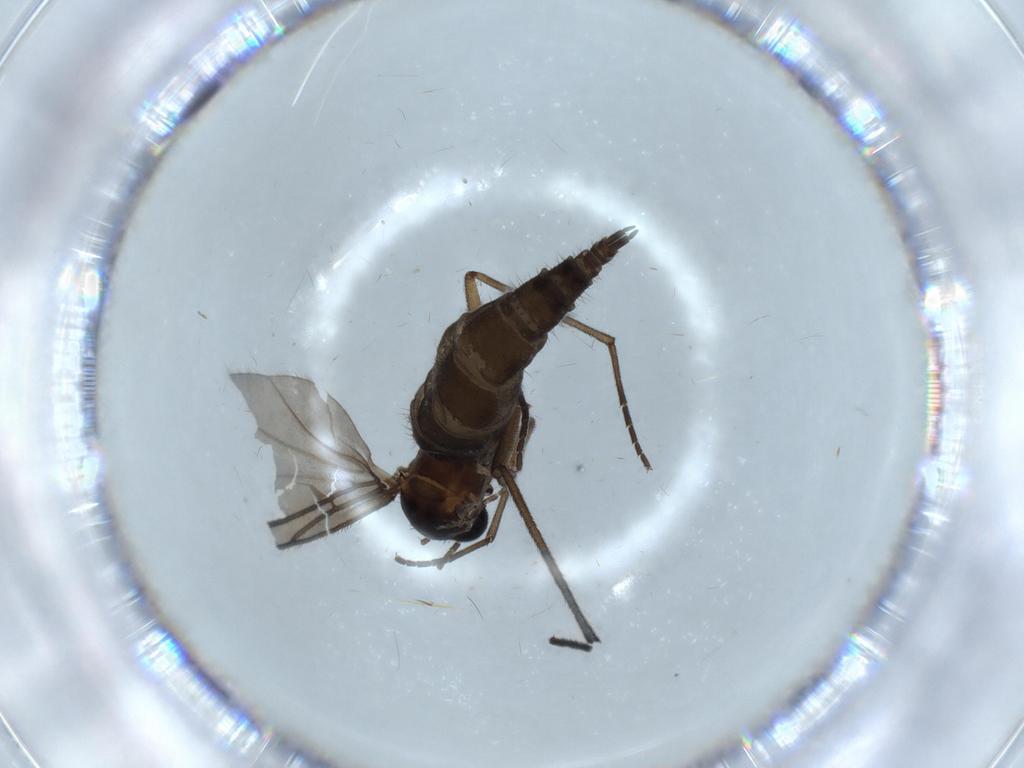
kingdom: Animalia
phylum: Arthropoda
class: Insecta
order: Diptera
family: Sciaridae
